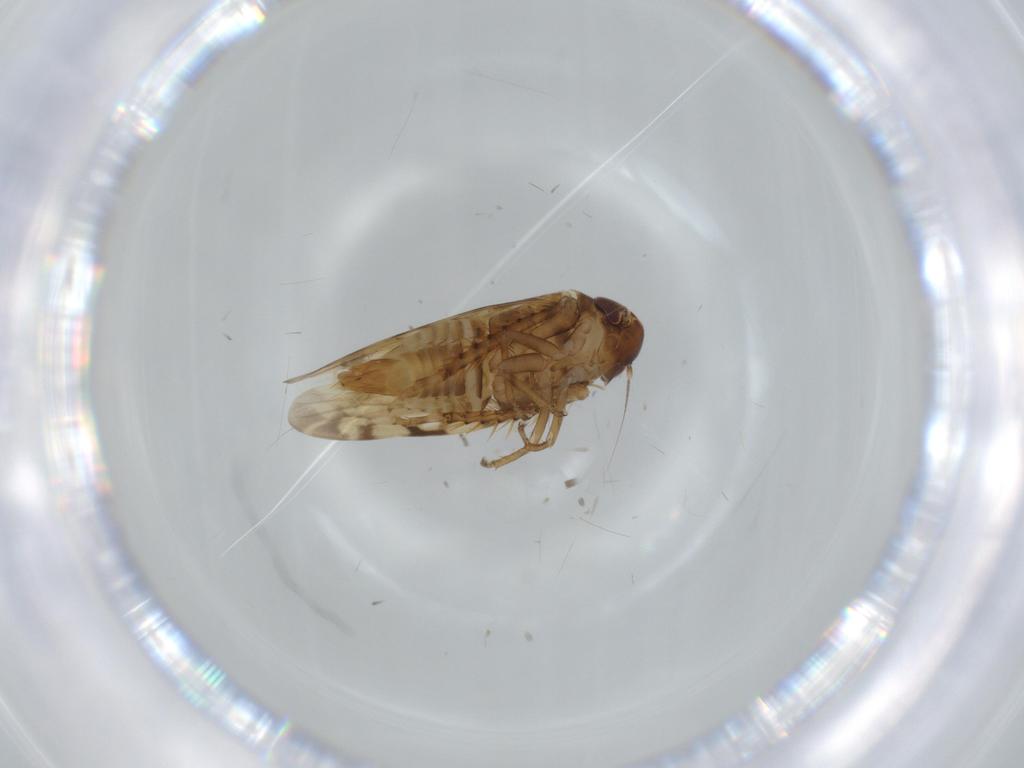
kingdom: Animalia
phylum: Arthropoda
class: Insecta
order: Hemiptera
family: Cicadellidae
